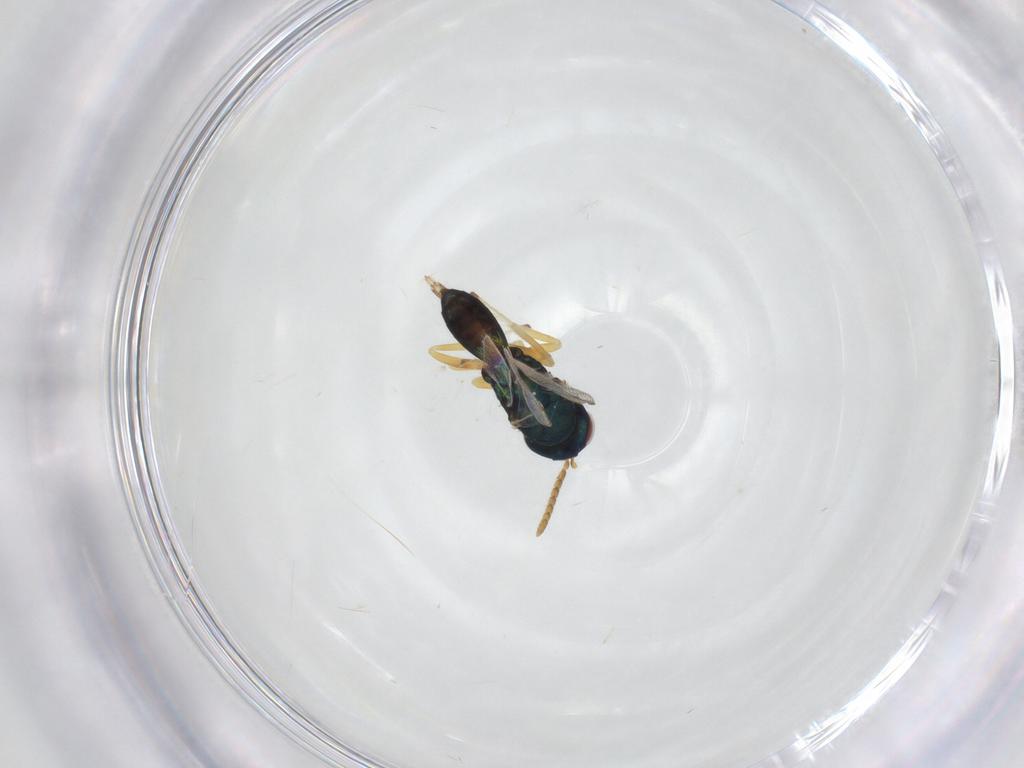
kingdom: Animalia
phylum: Arthropoda
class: Insecta
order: Hymenoptera
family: Pteromalidae
